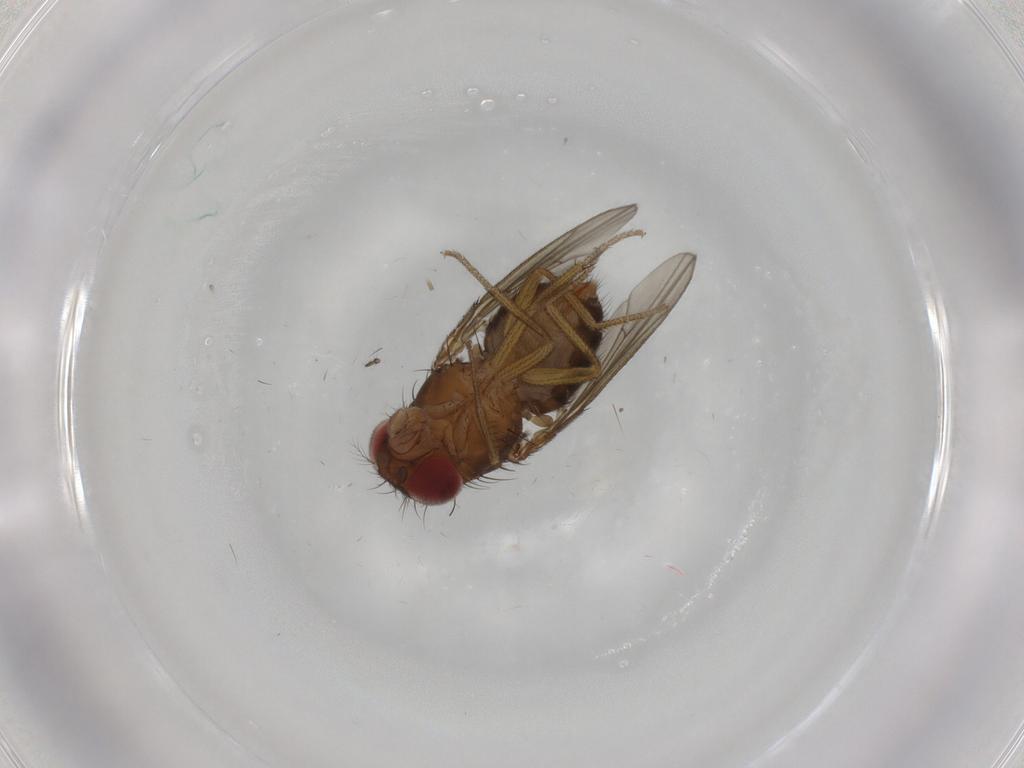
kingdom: Animalia
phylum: Arthropoda
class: Insecta
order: Diptera
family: Drosophilidae
